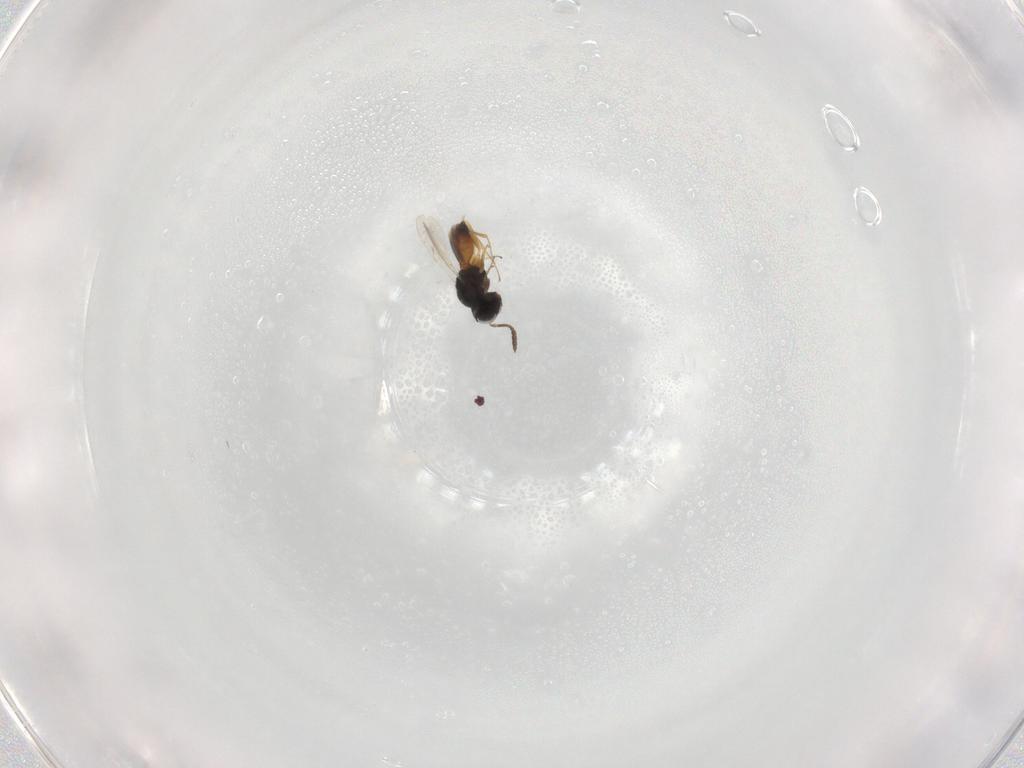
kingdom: Animalia
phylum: Arthropoda
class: Insecta
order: Hymenoptera
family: Scelionidae
